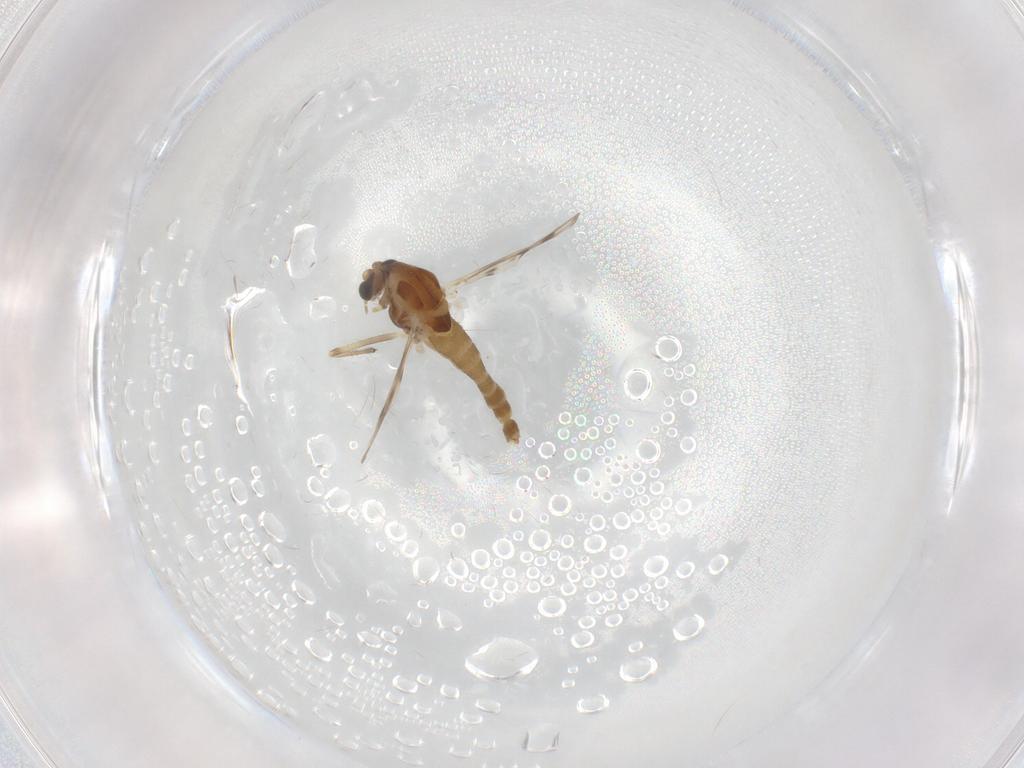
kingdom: Animalia
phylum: Arthropoda
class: Insecta
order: Diptera
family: Chironomidae
